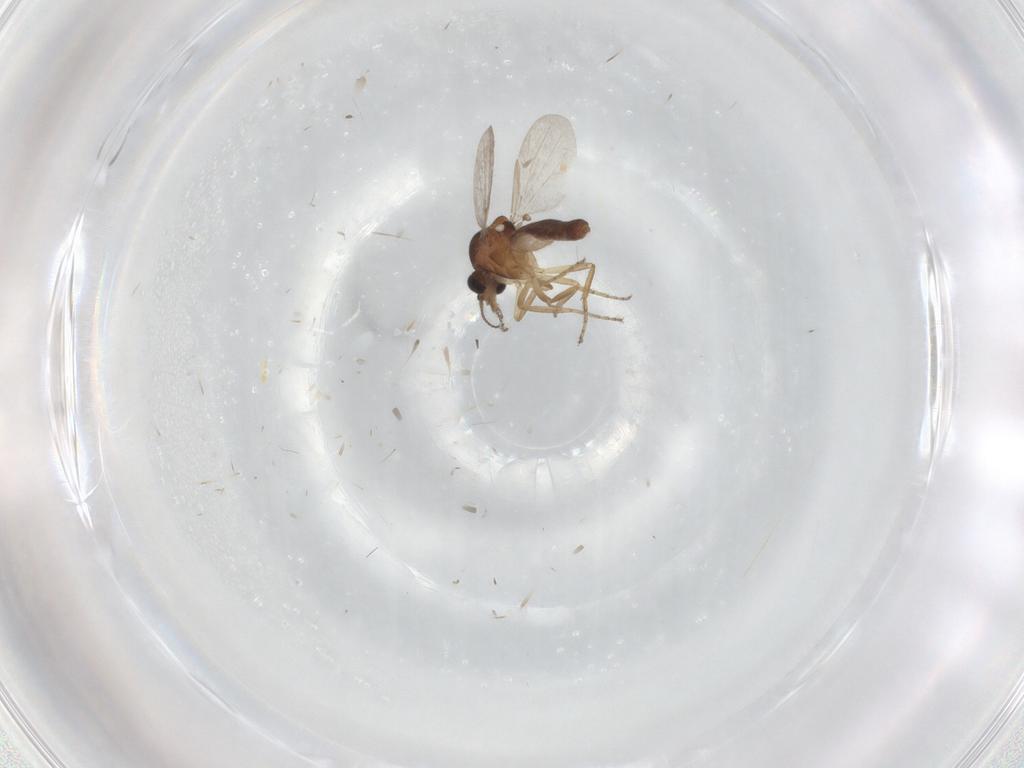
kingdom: Animalia
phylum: Arthropoda
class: Insecta
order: Diptera
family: Ceratopogonidae
